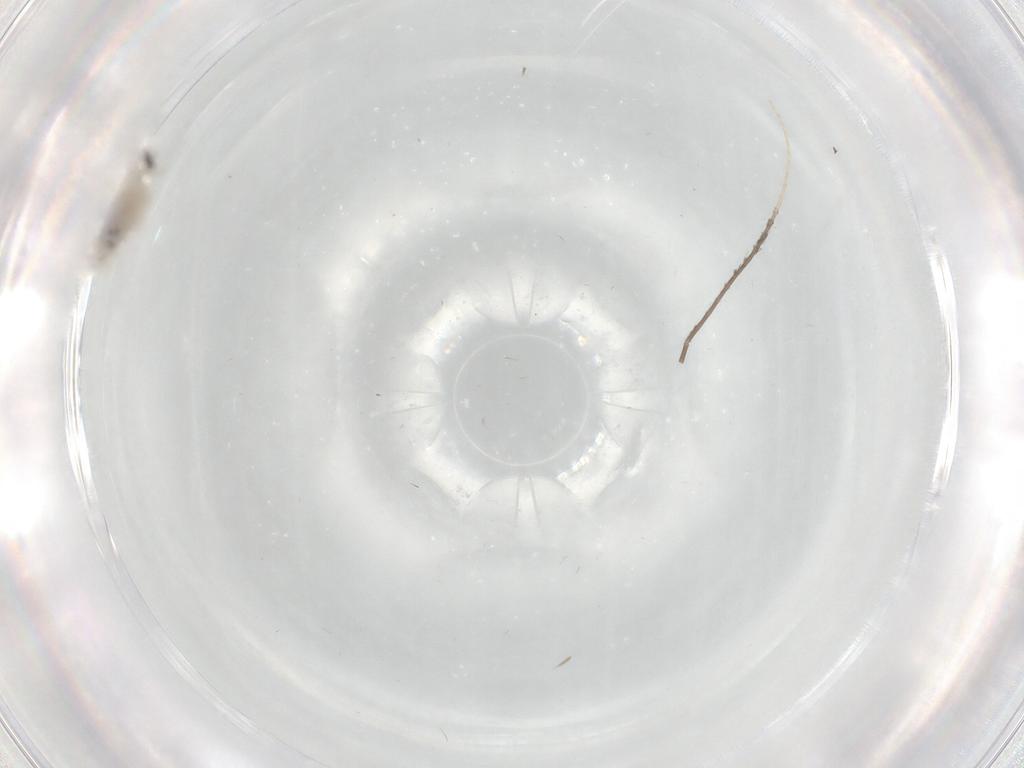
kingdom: Animalia
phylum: Arthropoda
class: Insecta
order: Diptera
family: Cecidomyiidae
